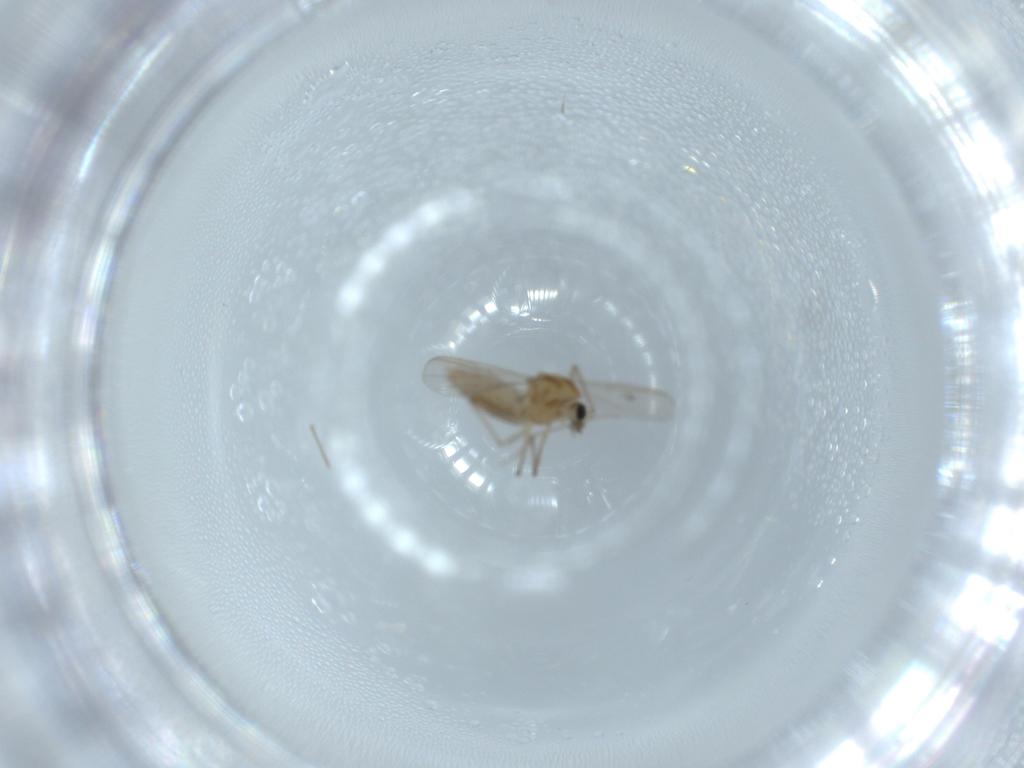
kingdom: Animalia
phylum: Arthropoda
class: Insecta
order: Diptera
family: Chironomidae
